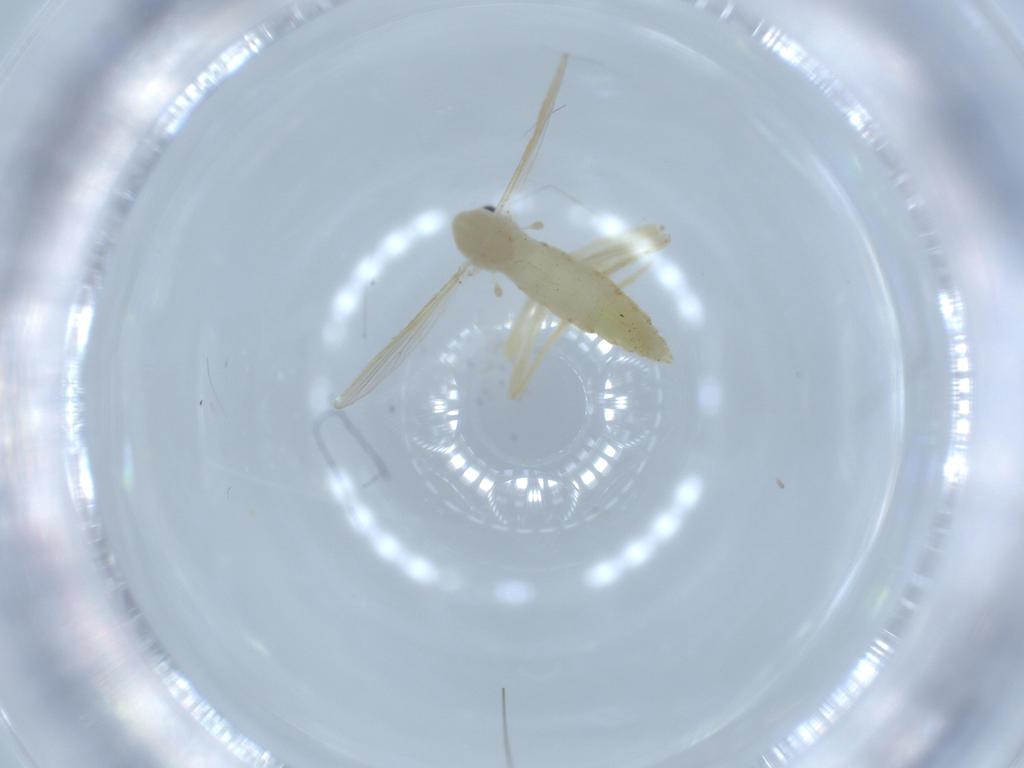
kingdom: Animalia
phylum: Arthropoda
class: Insecta
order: Diptera
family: Chironomidae
